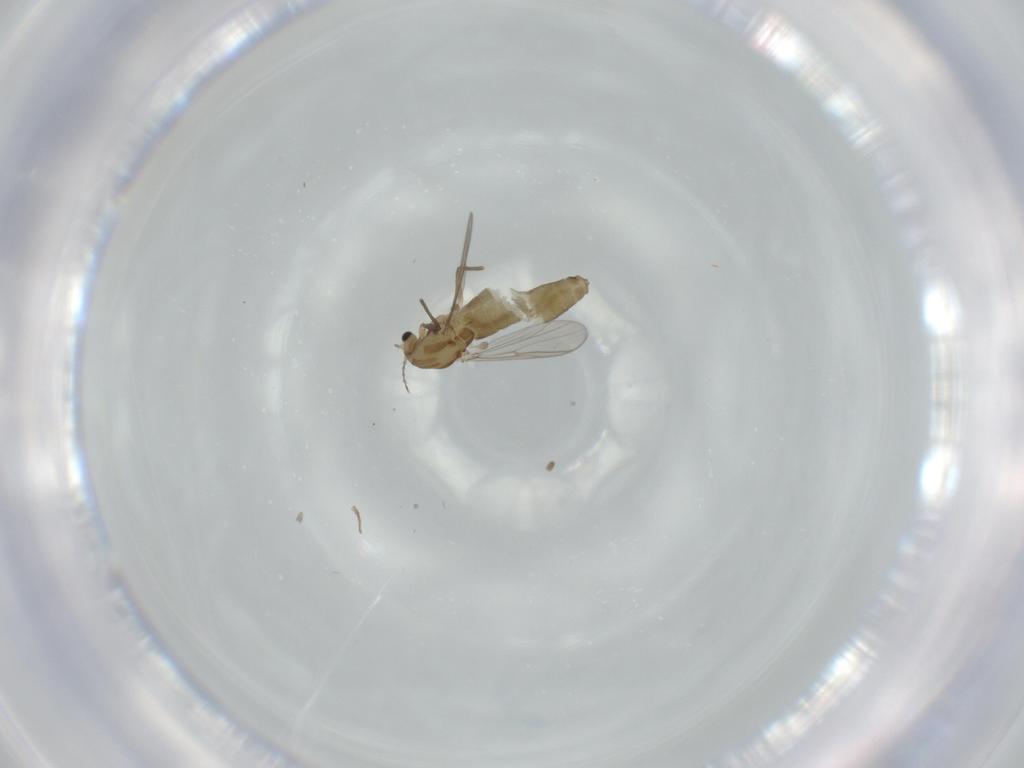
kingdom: Animalia
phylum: Arthropoda
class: Insecta
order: Diptera
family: Chironomidae
